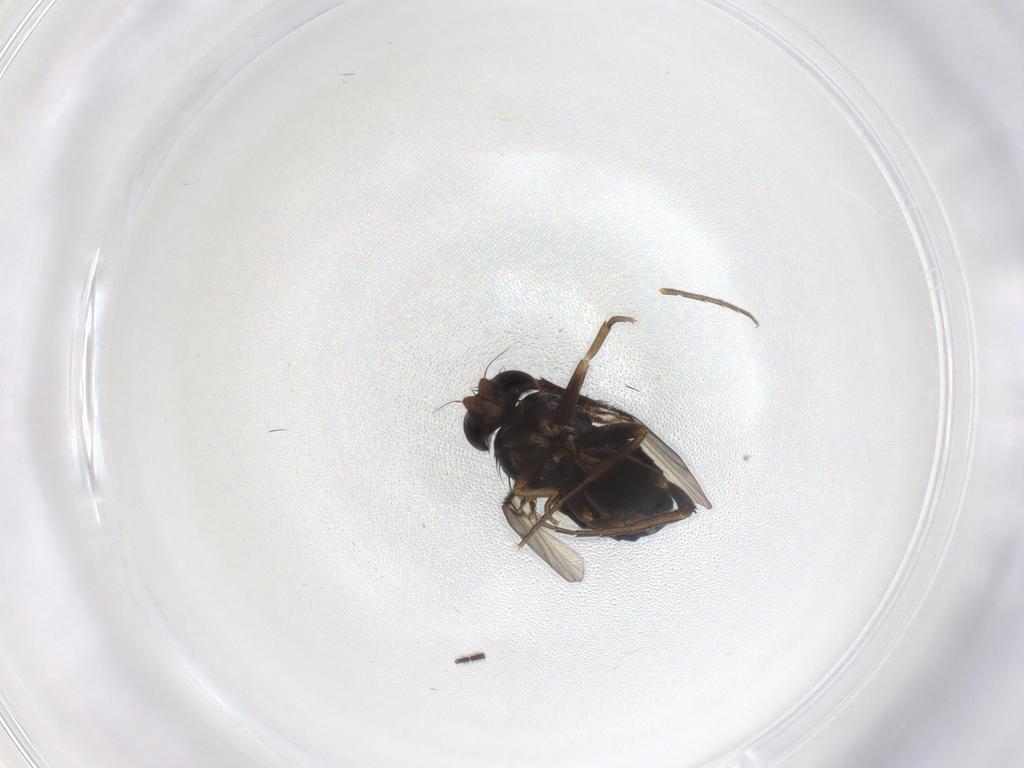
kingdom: Animalia
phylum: Arthropoda
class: Insecta
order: Diptera
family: Phoridae
